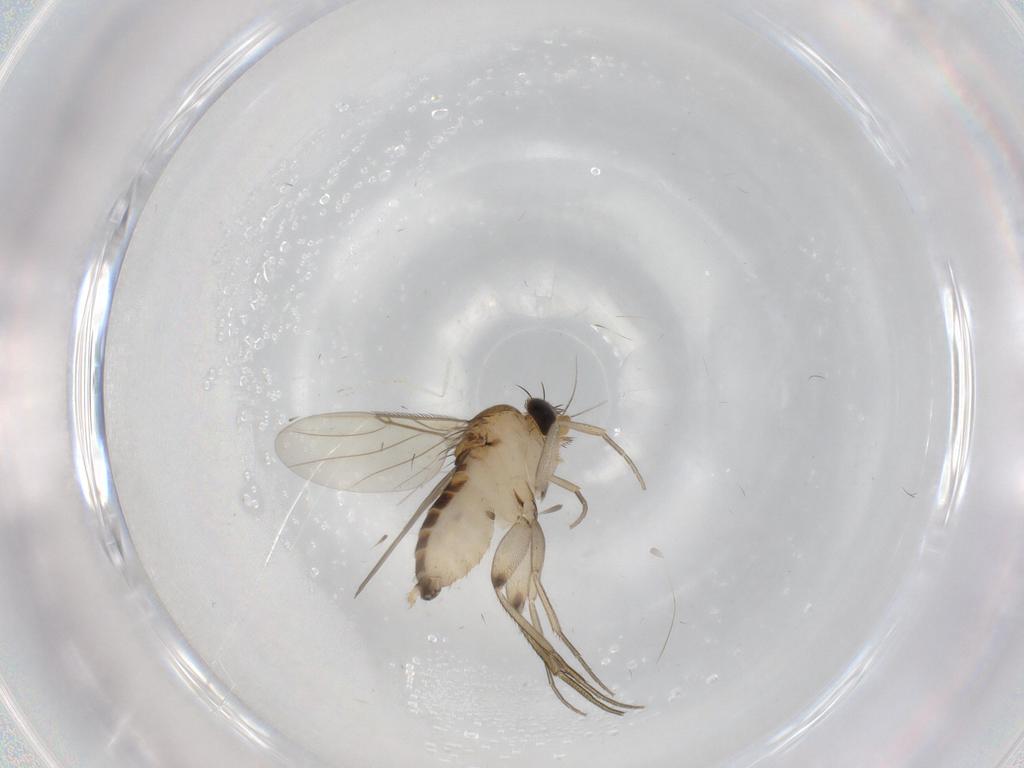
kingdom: Animalia
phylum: Arthropoda
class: Insecta
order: Diptera
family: Phoridae
